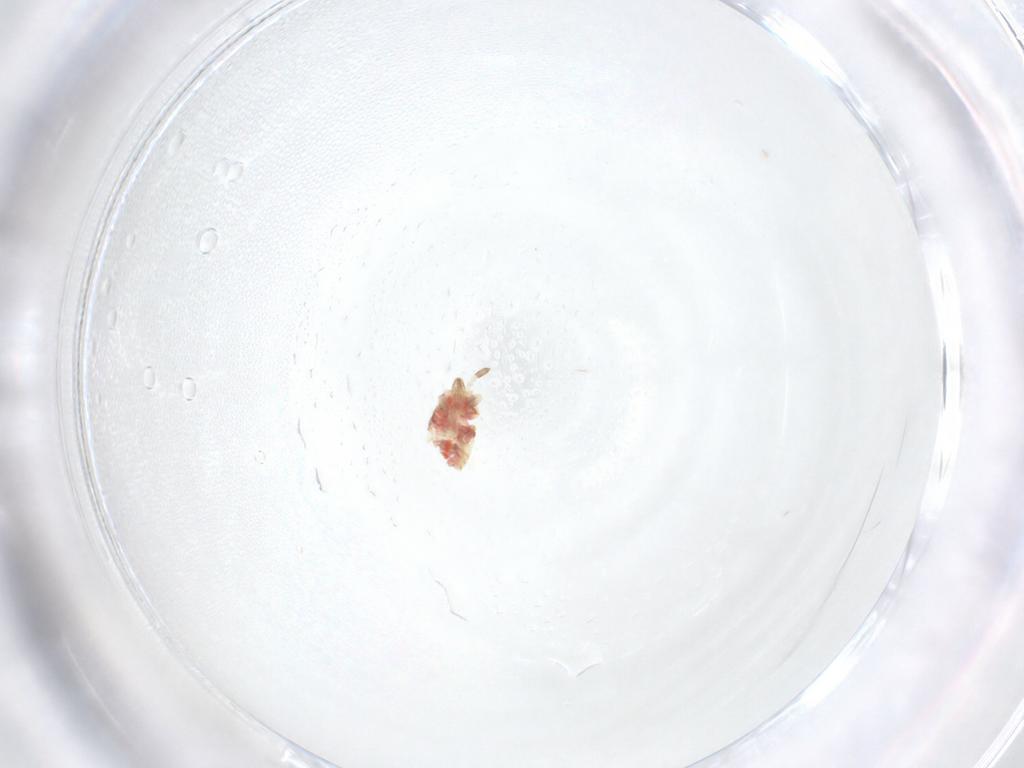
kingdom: Animalia
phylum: Arthropoda
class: Insecta
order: Hemiptera
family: Aradidae
